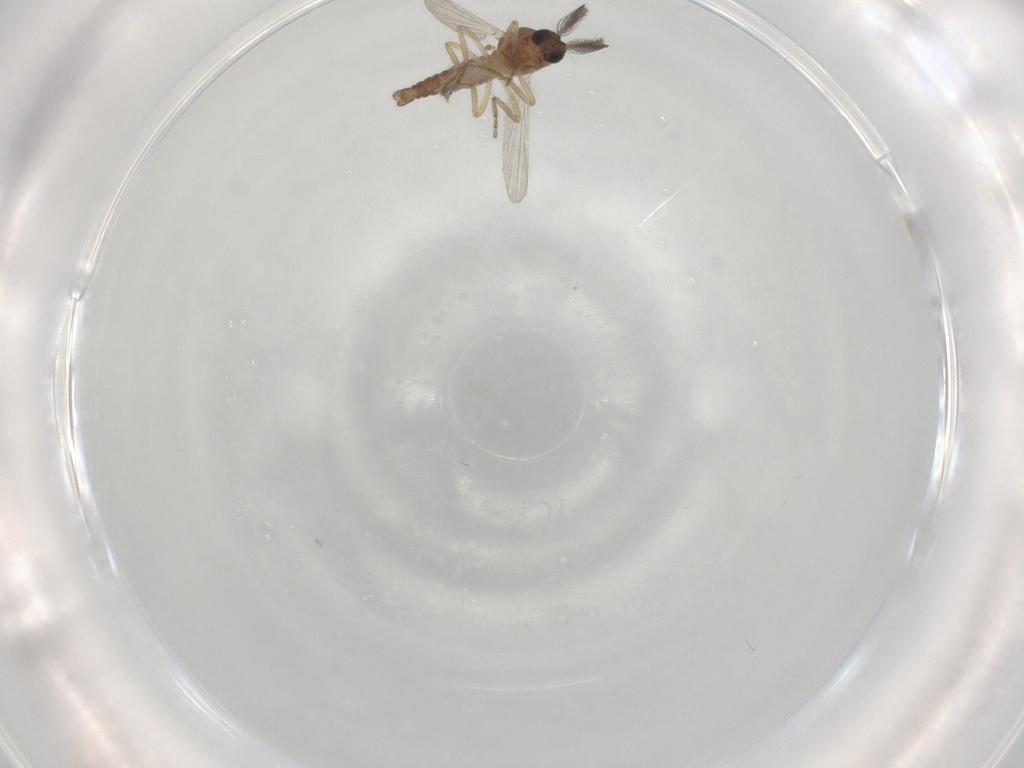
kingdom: Animalia
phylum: Arthropoda
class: Insecta
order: Diptera
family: Ceratopogonidae
